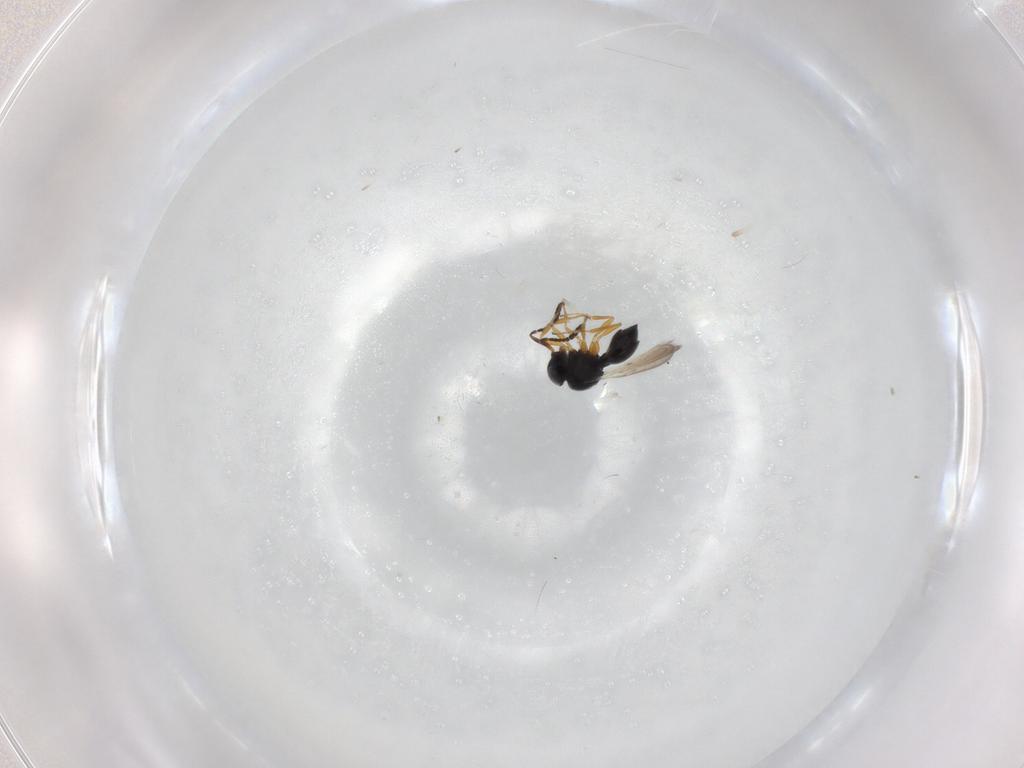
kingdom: Animalia
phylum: Arthropoda
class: Insecta
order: Hymenoptera
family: Scelionidae
